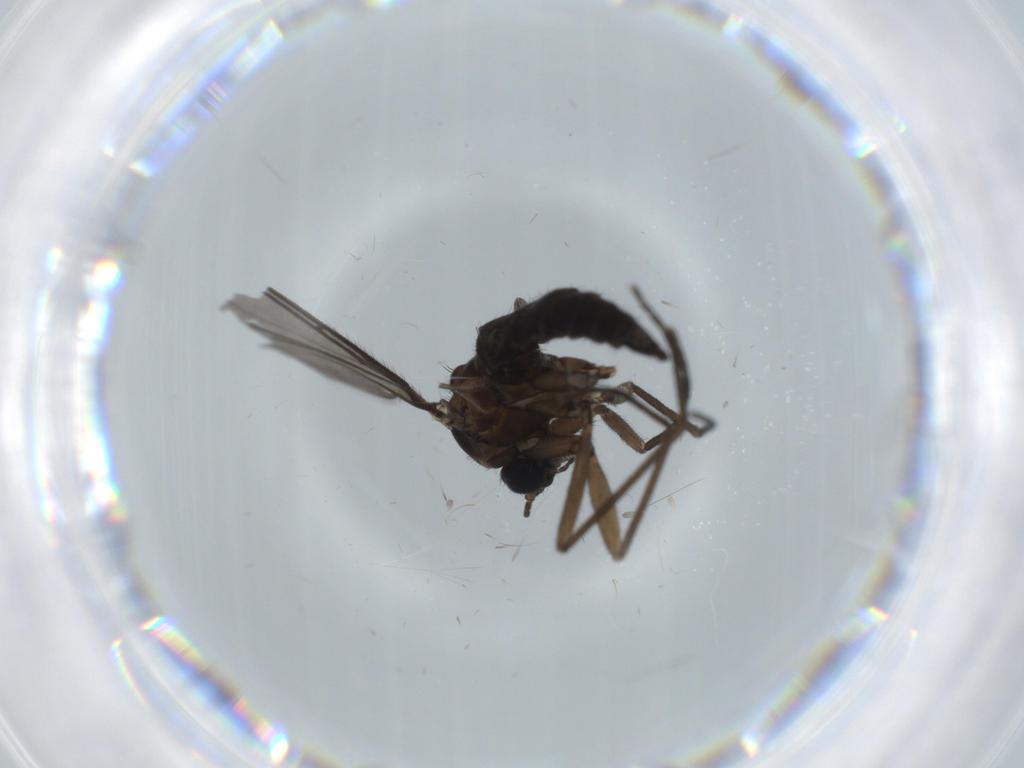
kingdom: Animalia
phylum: Arthropoda
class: Insecta
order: Diptera
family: Sciaridae
